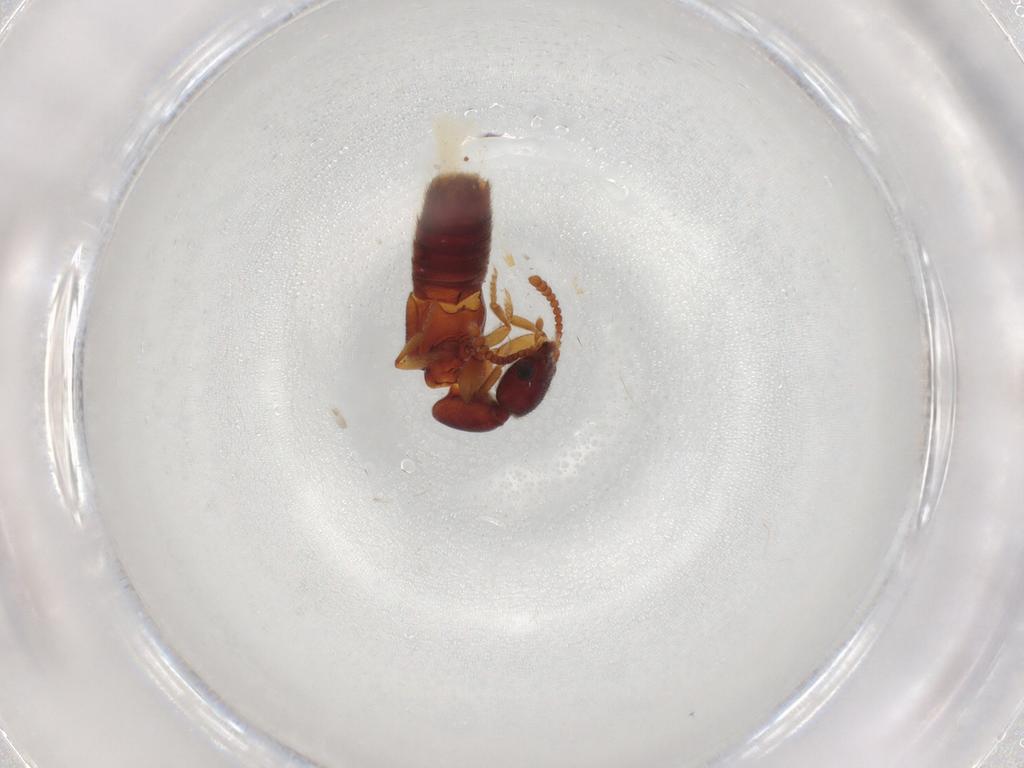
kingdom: Animalia
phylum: Arthropoda
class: Insecta
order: Coleoptera
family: Staphylinidae
